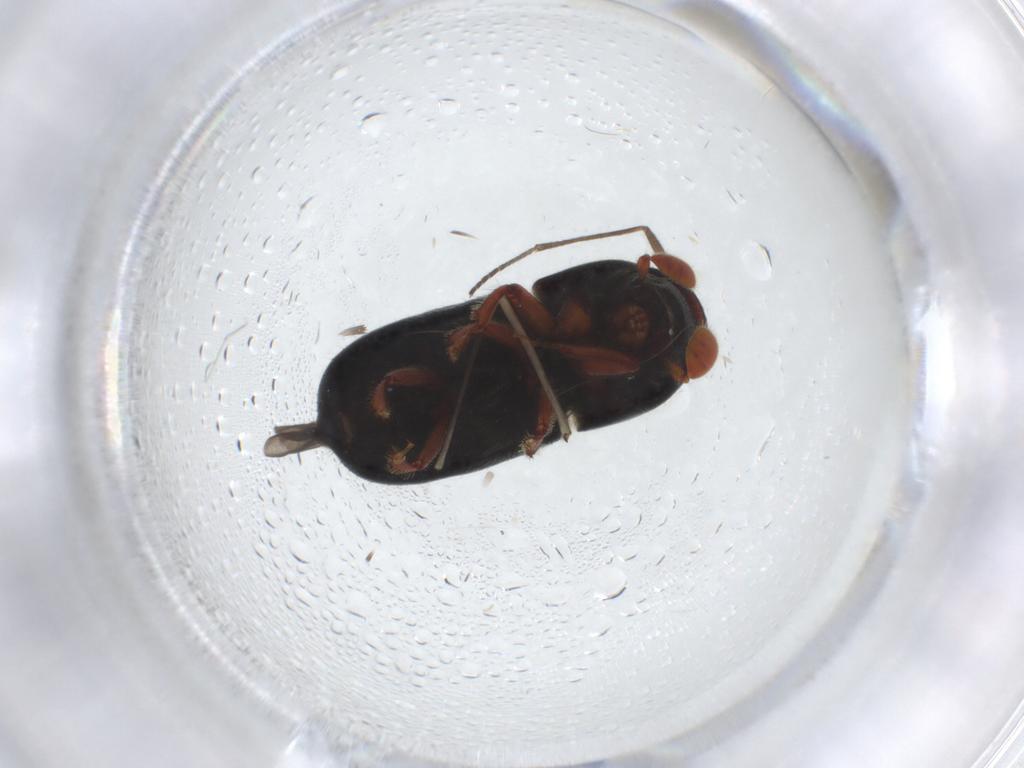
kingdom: Animalia
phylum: Arthropoda
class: Insecta
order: Coleoptera
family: Curculionidae
